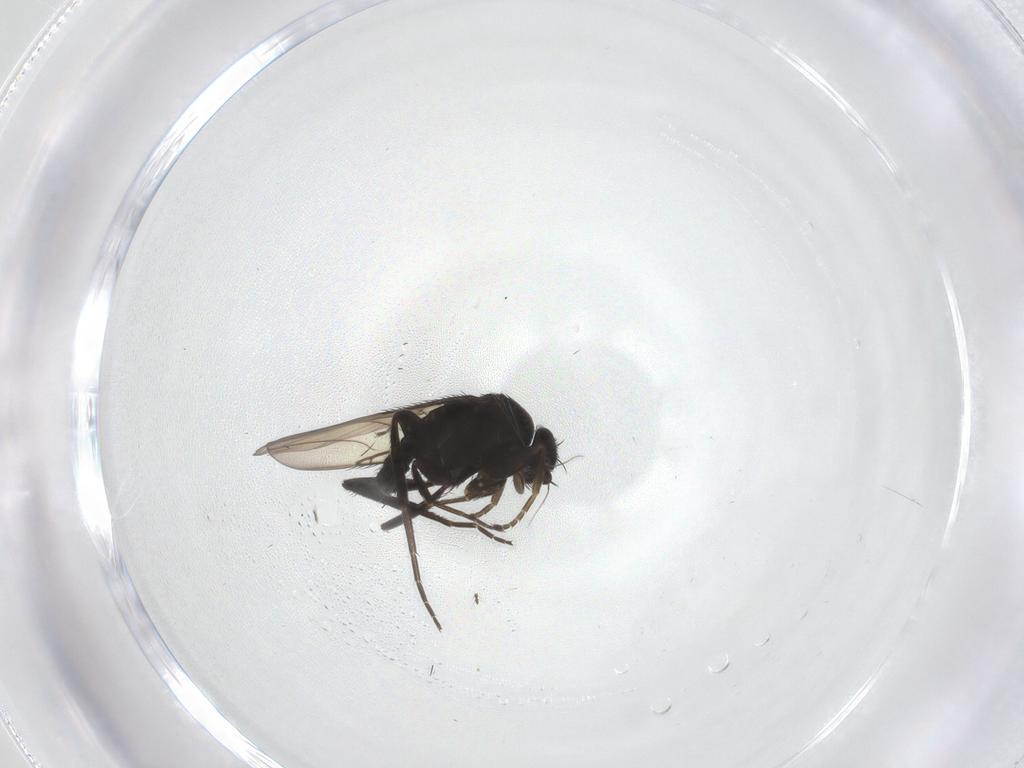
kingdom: Animalia
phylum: Arthropoda
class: Insecta
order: Diptera
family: Phoridae
